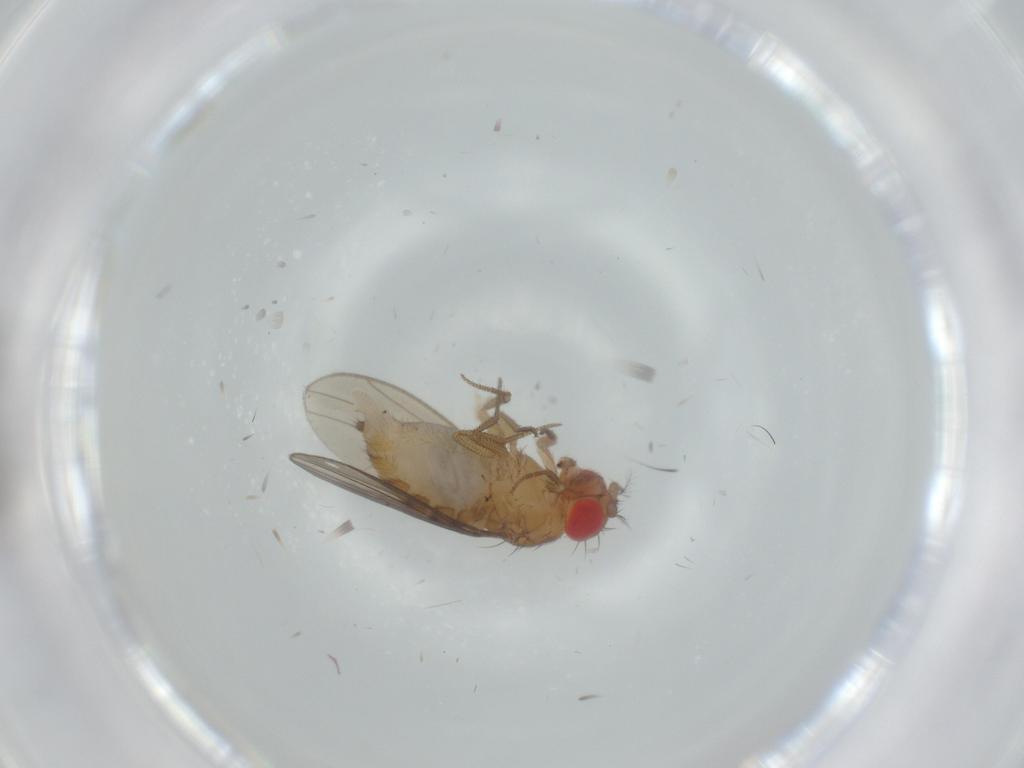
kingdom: Animalia
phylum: Arthropoda
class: Insecta
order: Diptera
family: Drosophilidae
